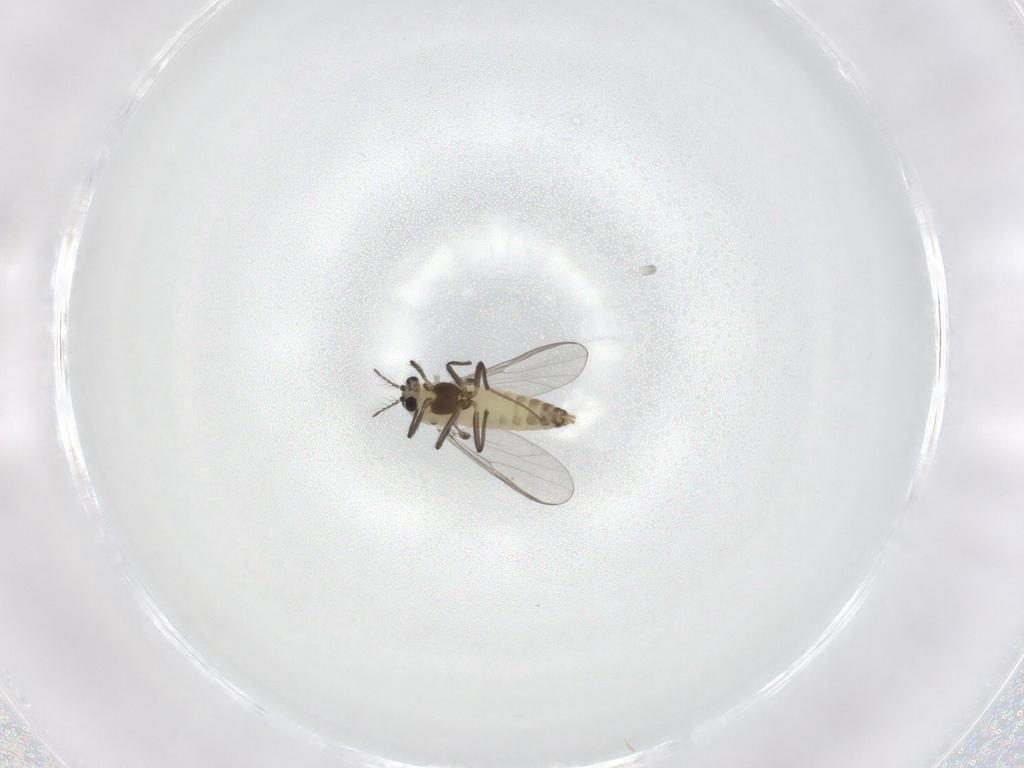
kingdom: Animalia
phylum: Arthropoda
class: Insecta
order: Diptera
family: Chironomidae
